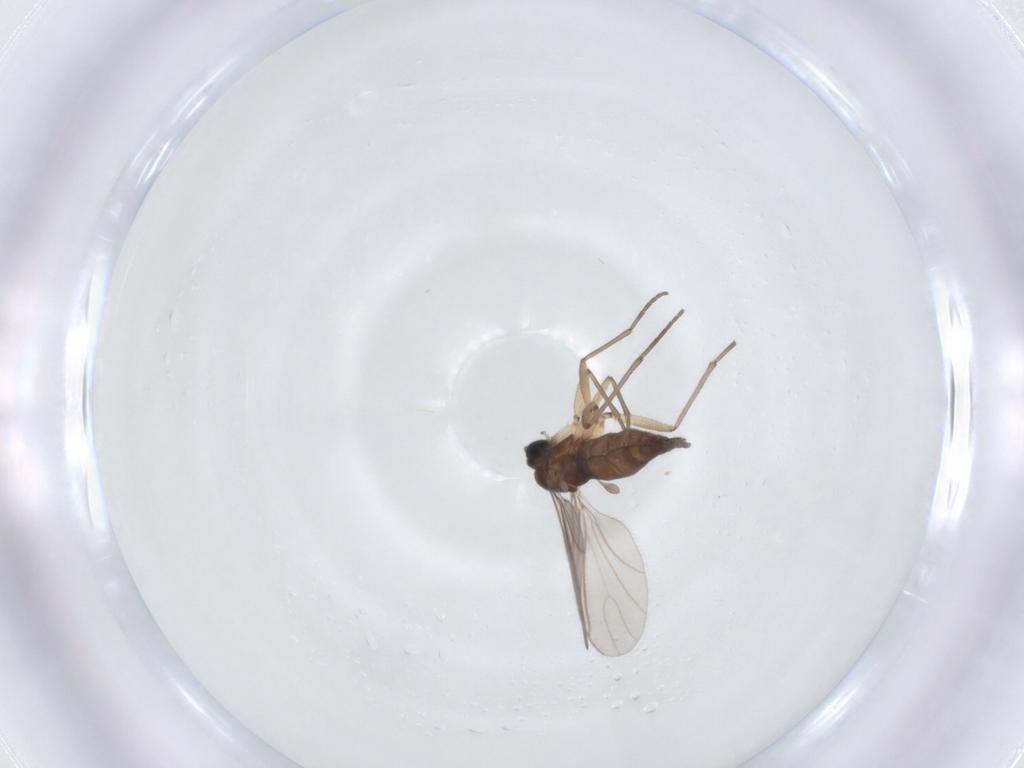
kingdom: Animalia
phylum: Arthropoda
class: Insecta
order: Diptera
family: Sciaridae
